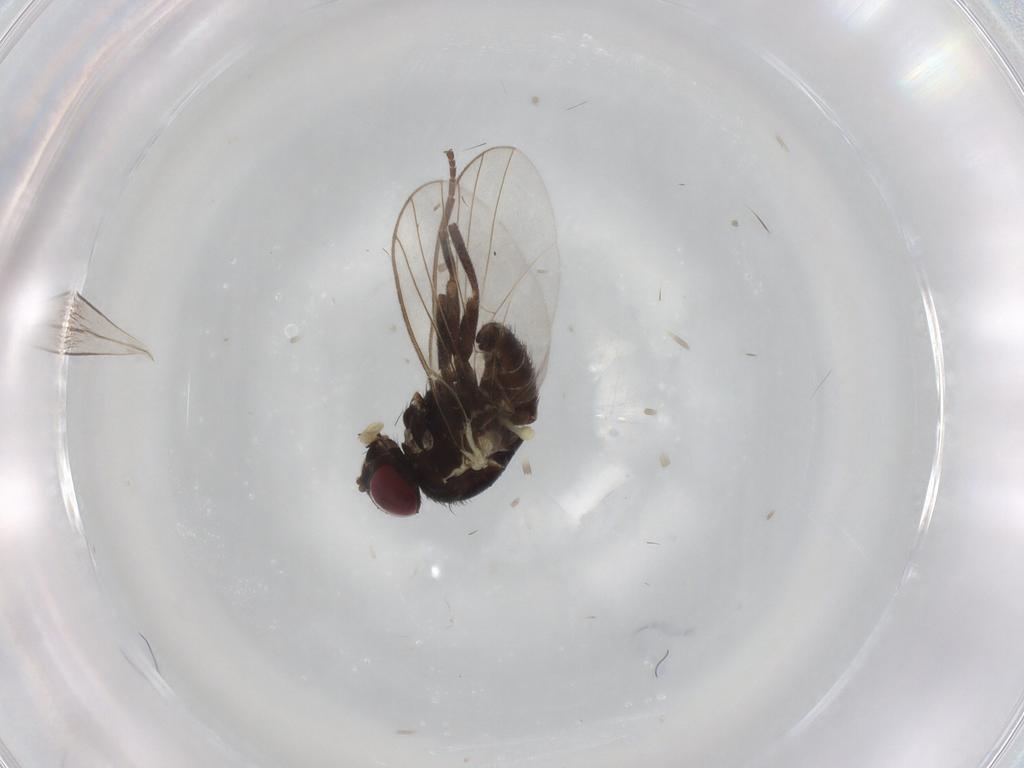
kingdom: Animalia
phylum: Arthropoda
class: Insecta
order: Diptera
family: Agromyzidae
